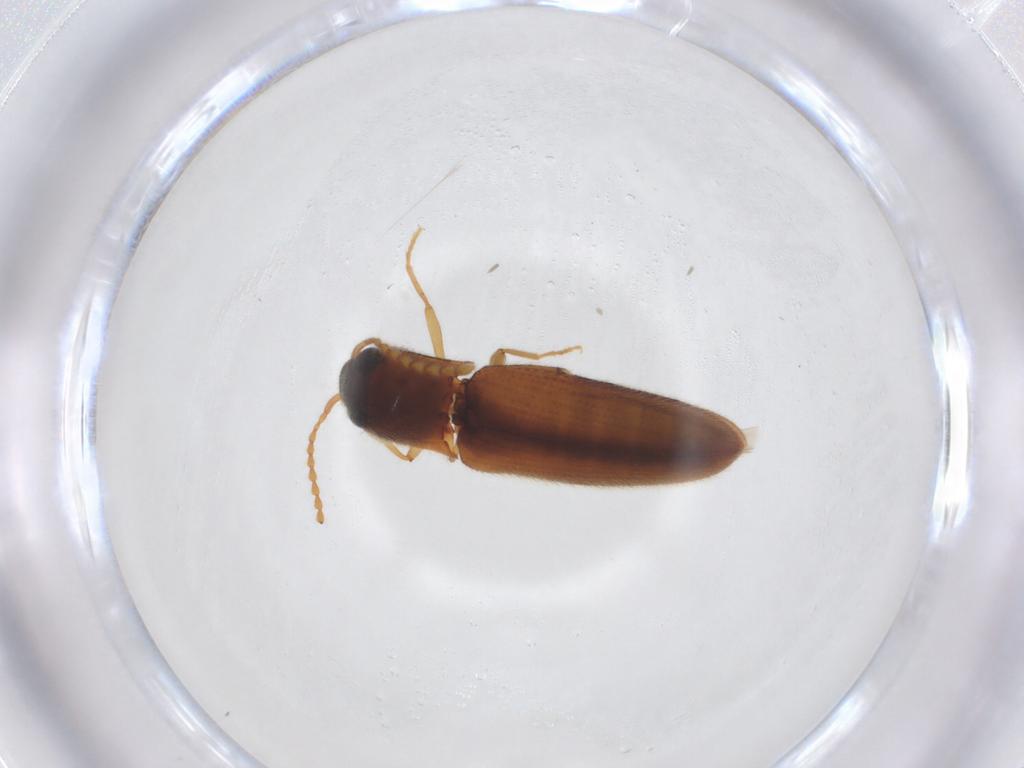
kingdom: Animalia
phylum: Arthropoda
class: Insecta
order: Coleoptera
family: Elateridae
